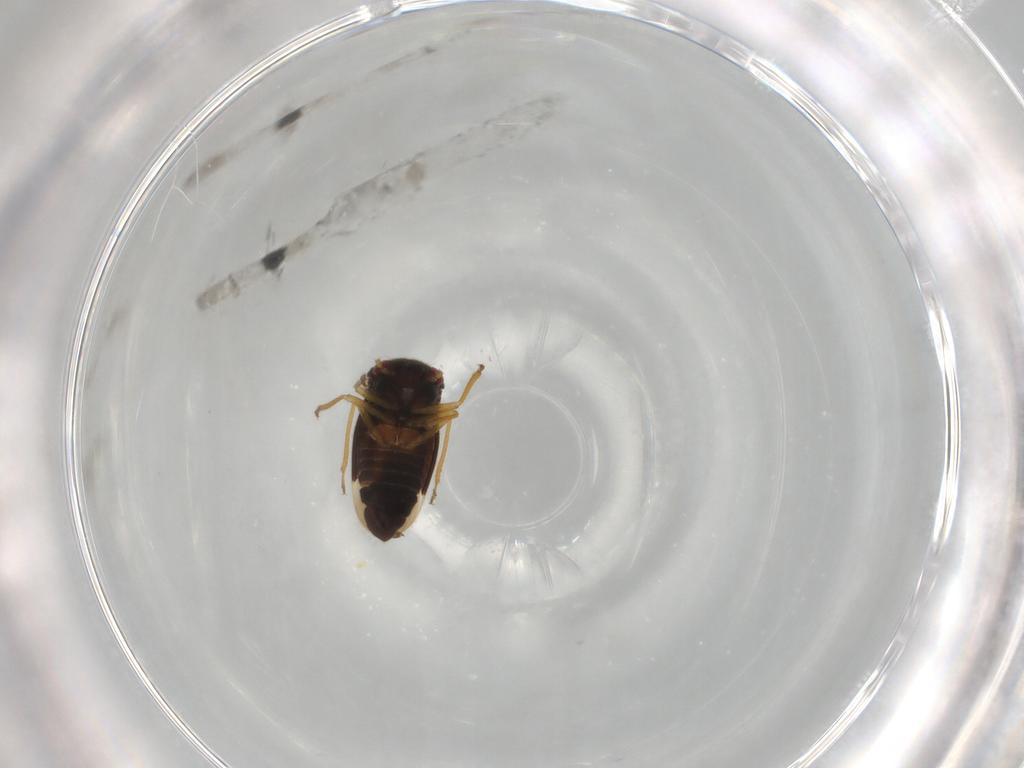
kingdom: Animalia
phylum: Arthropoda
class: Insecta
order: Hemiptera
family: Schizopteridae
